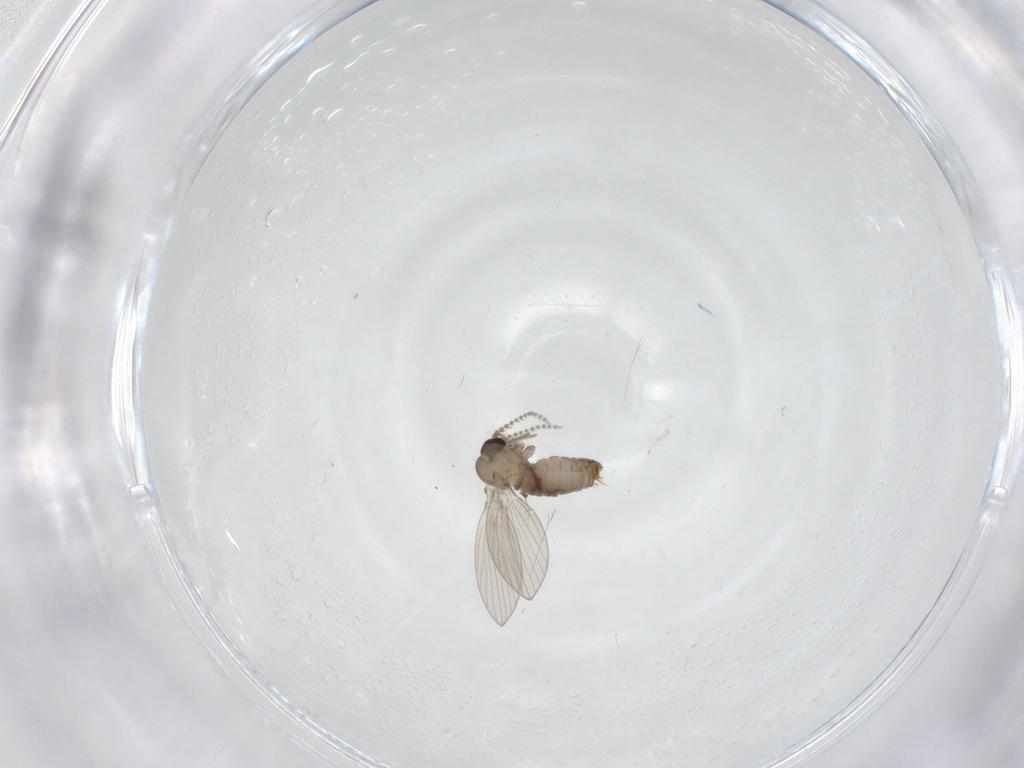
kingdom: Animalia
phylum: Arthropoda
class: Insecta
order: Diptera
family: Psychodidae
